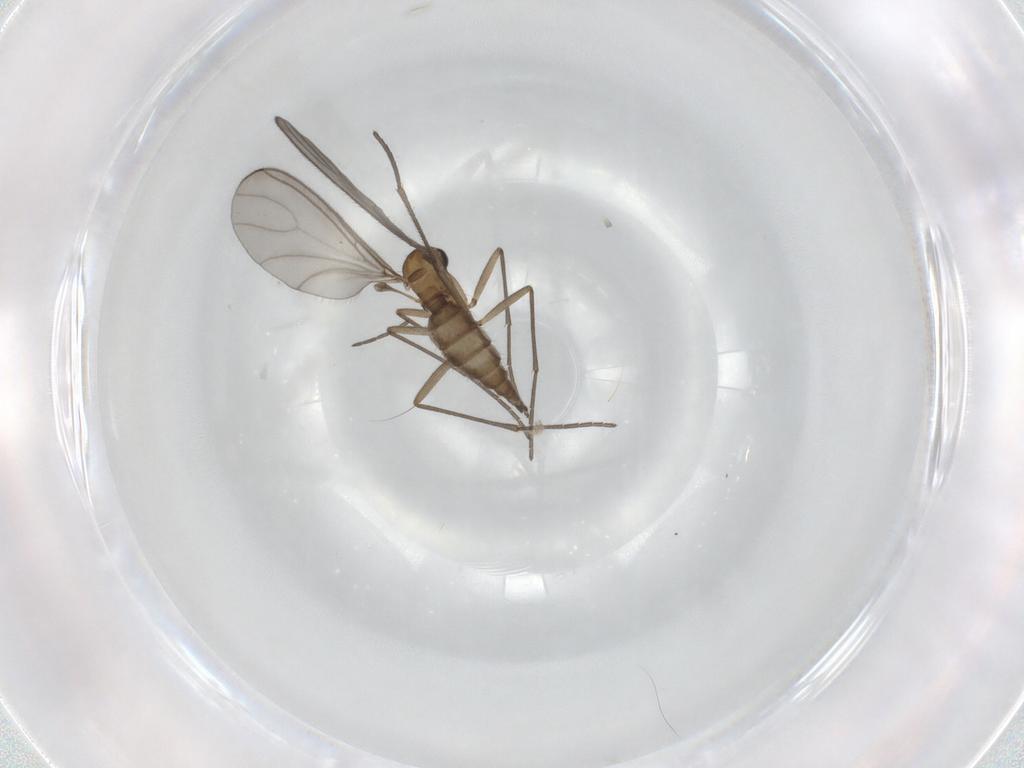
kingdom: Animalia
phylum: Arthropoda
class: Insecta
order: Diptera
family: Sciaridae
